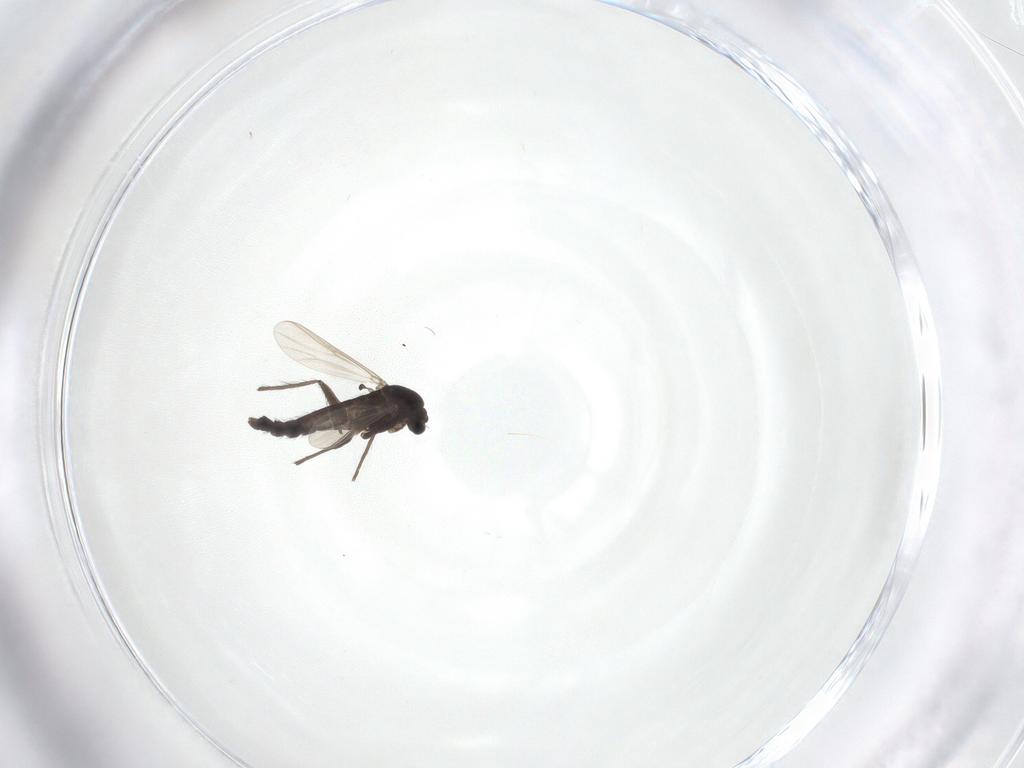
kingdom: Animalia
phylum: Arthropoda
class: Insecta
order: Diptera
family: Chironomidae
